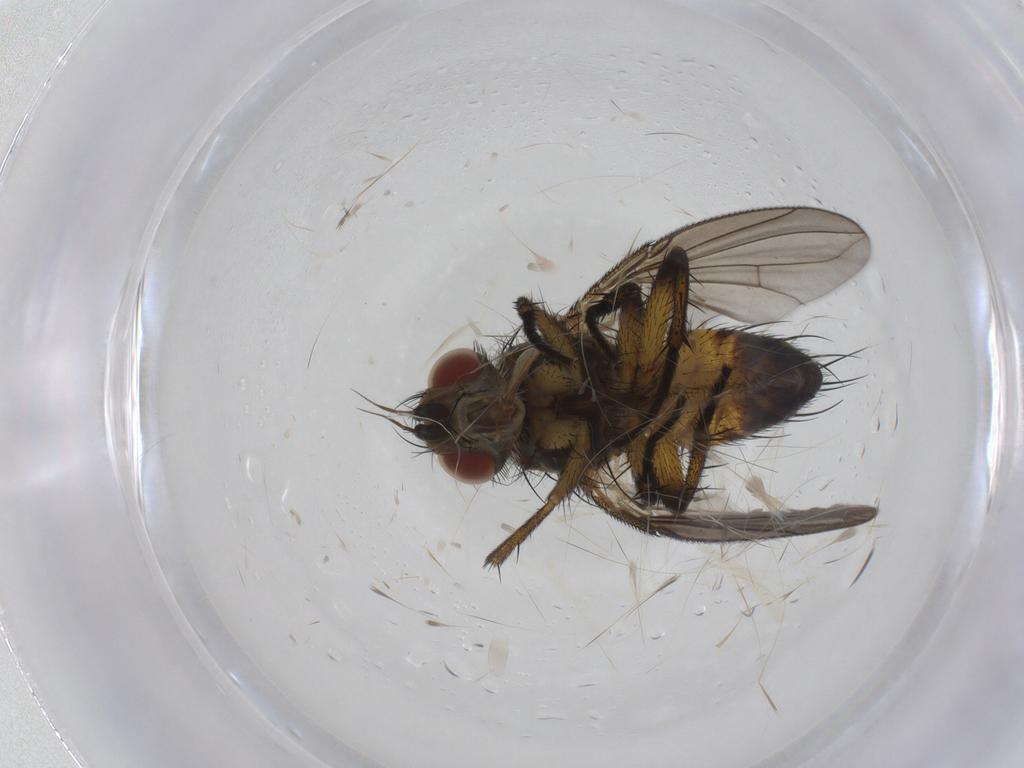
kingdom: Animalia
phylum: Arthropoda
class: Insecta
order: Diptera
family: Tachinidae
